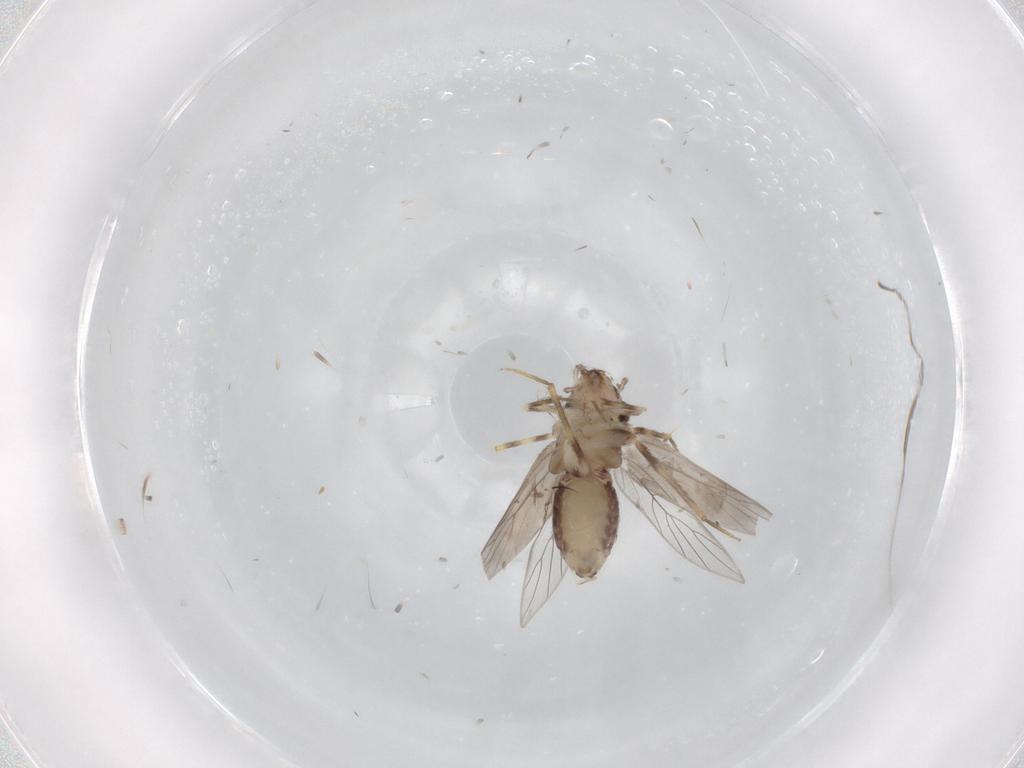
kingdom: Animalia
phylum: Arthropoda
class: Insecta
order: Psocodea
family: Lepidopsocidae
